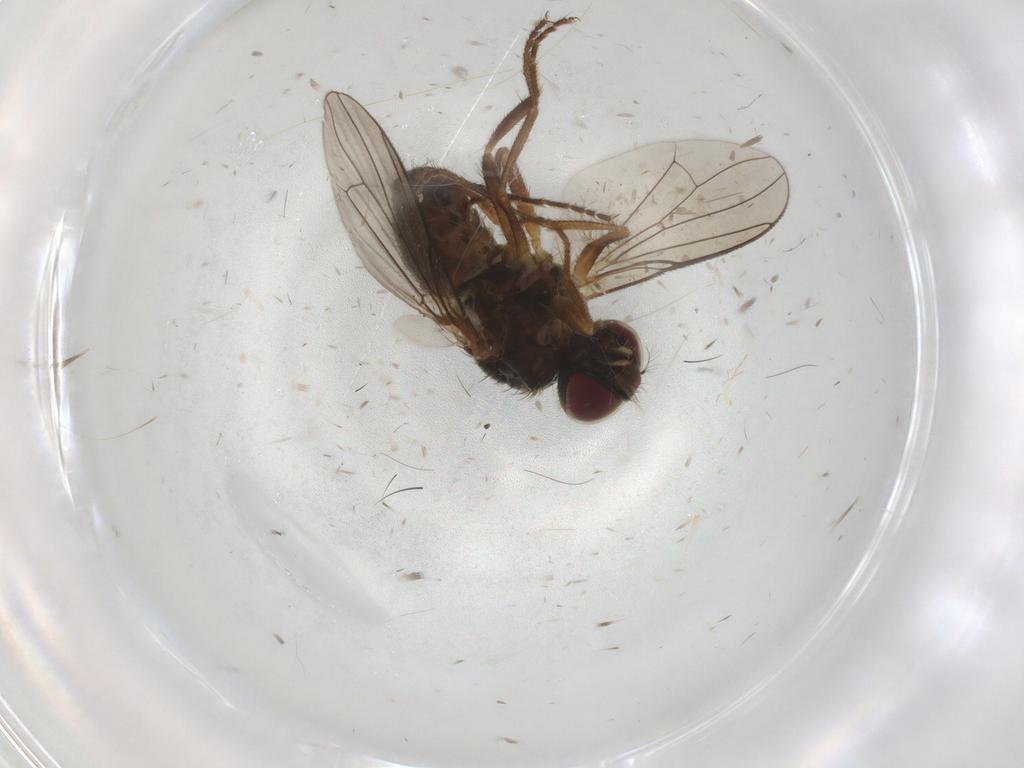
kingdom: Animalia
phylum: Arthropoda
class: Insecta
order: Diptera
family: Muscidae
